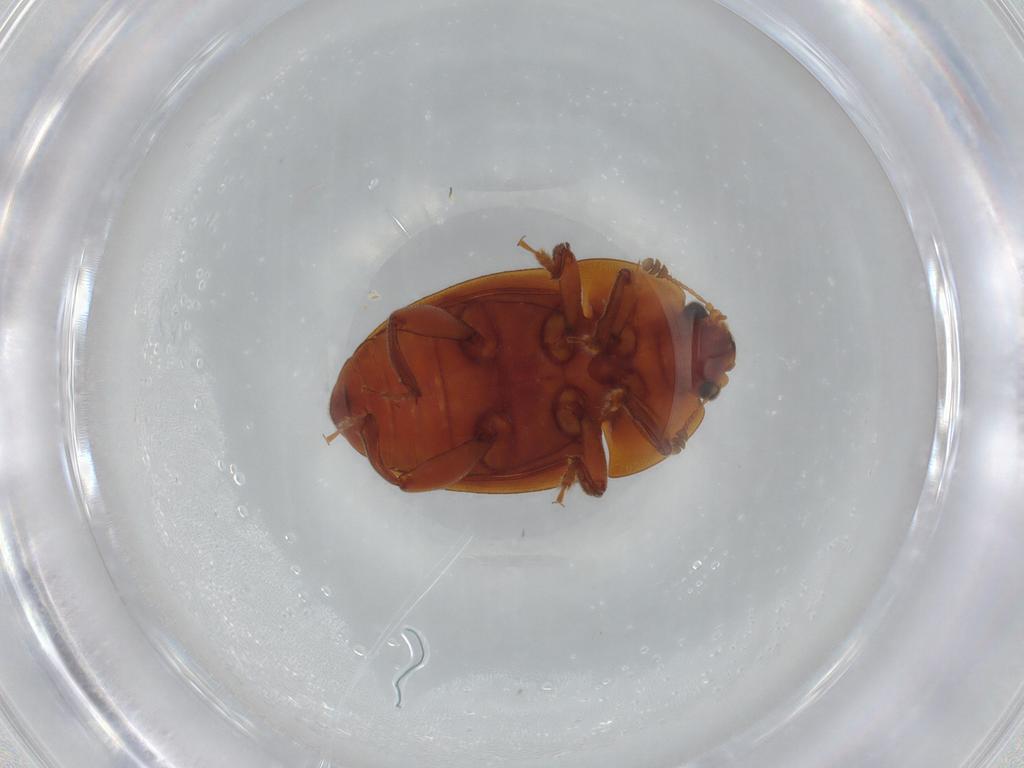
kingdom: Animalia
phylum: Arthropoda
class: Insecta
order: Coleoptera
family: Nitidulidae
